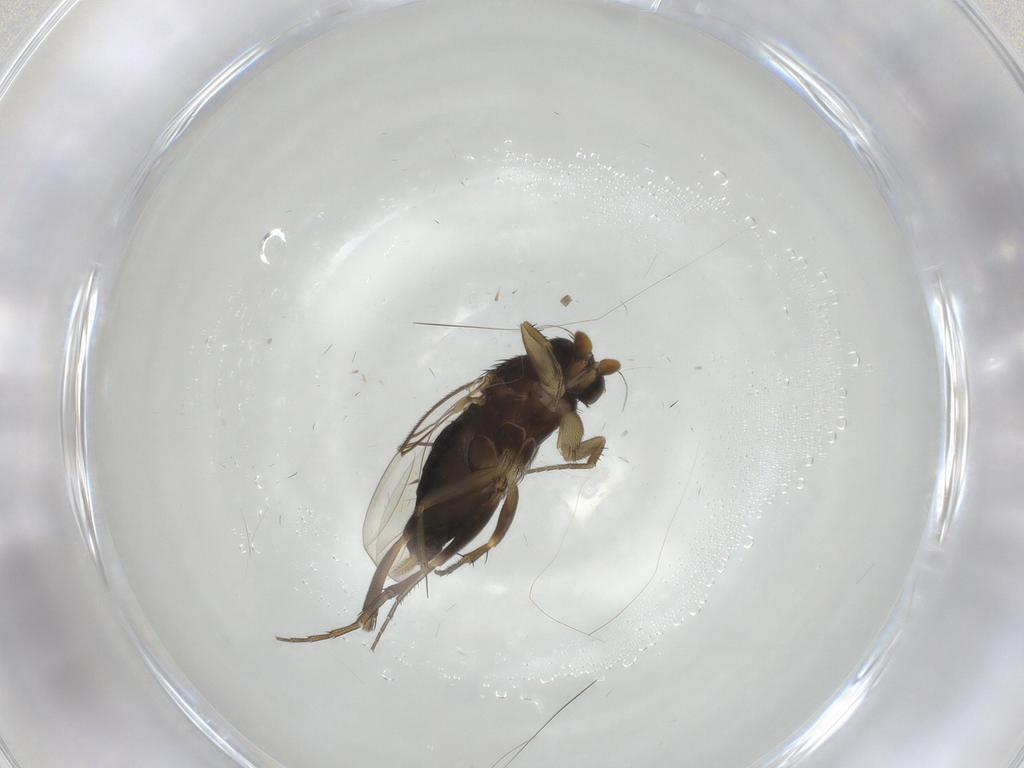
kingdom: Animalia
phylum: Arthropoda
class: Insecta
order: Diptera
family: Phoridae
